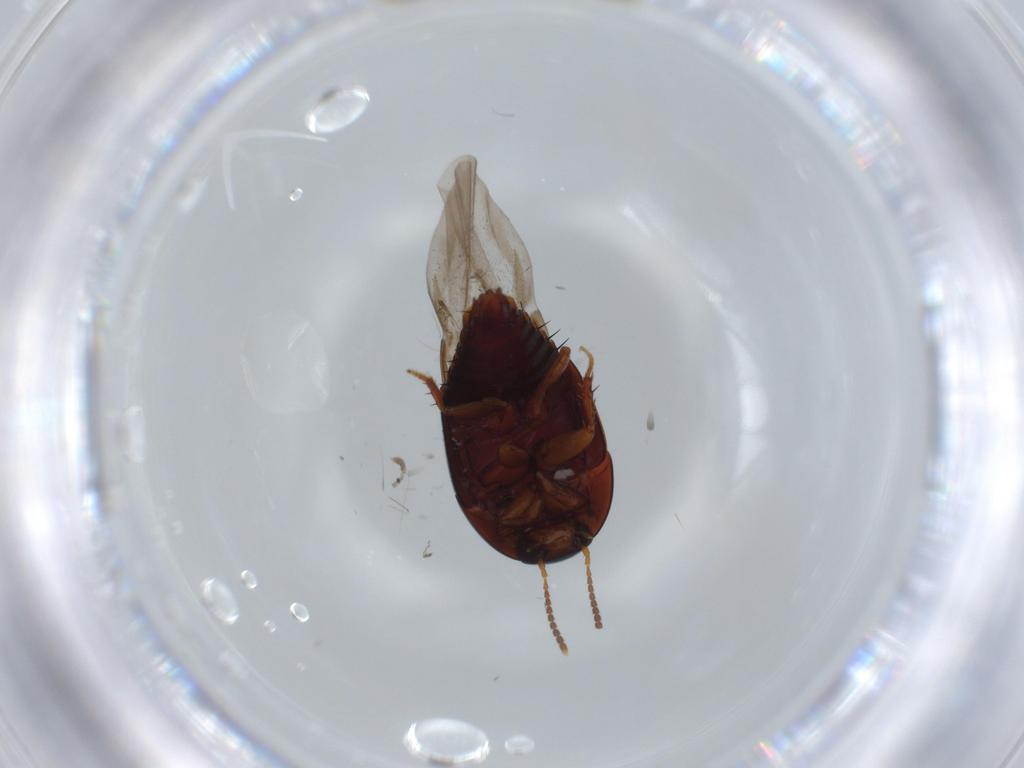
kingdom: Animalia
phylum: Arthropoda
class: Insecta
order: Coleoptera
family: Staphylinidae
